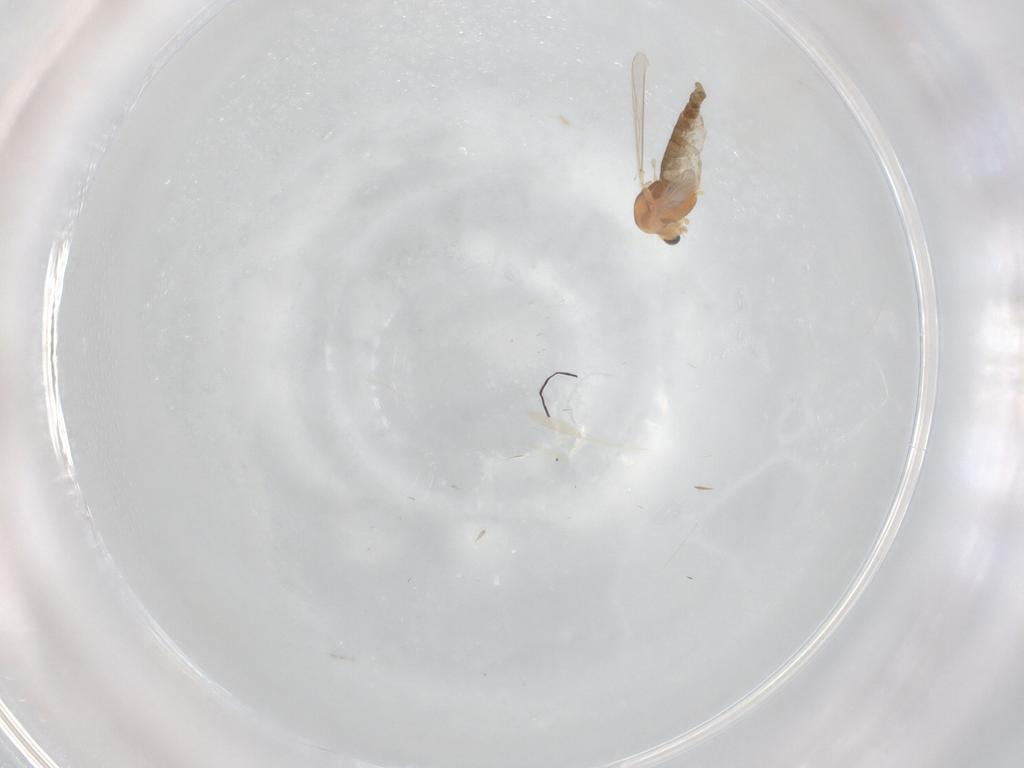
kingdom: Animalia
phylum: Arthropoda
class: Insecta
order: Diptera
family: Chironomidae
